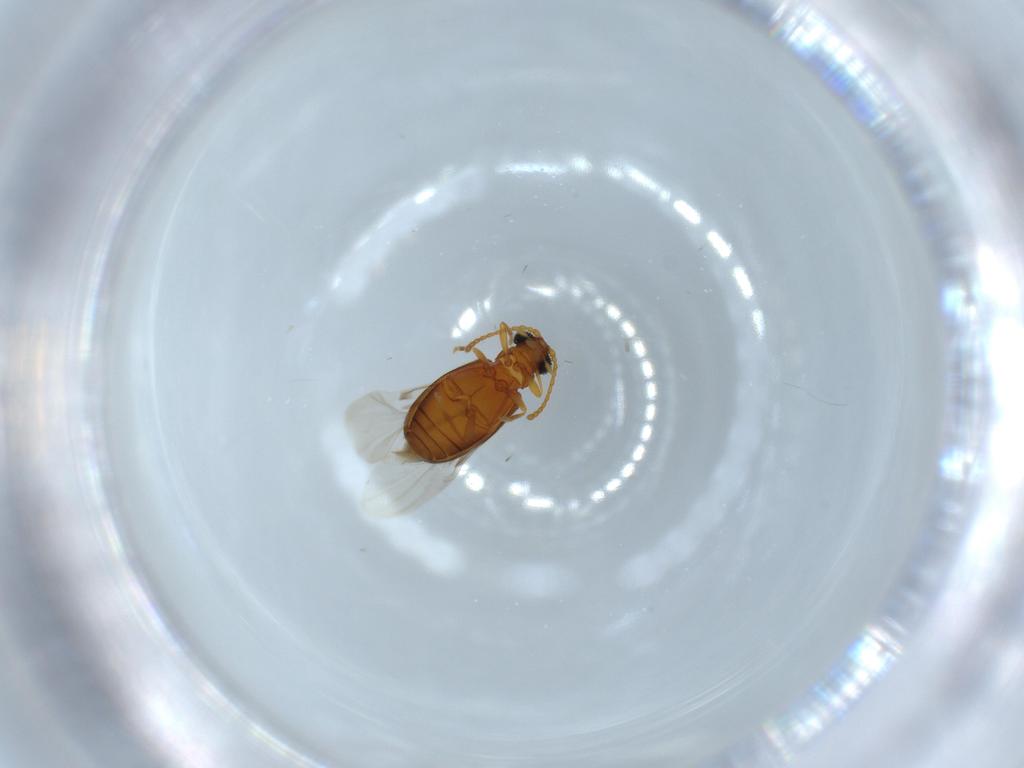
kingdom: Animalia
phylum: Arthropoda
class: Insecta
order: Coleoptera
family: Aderidae
